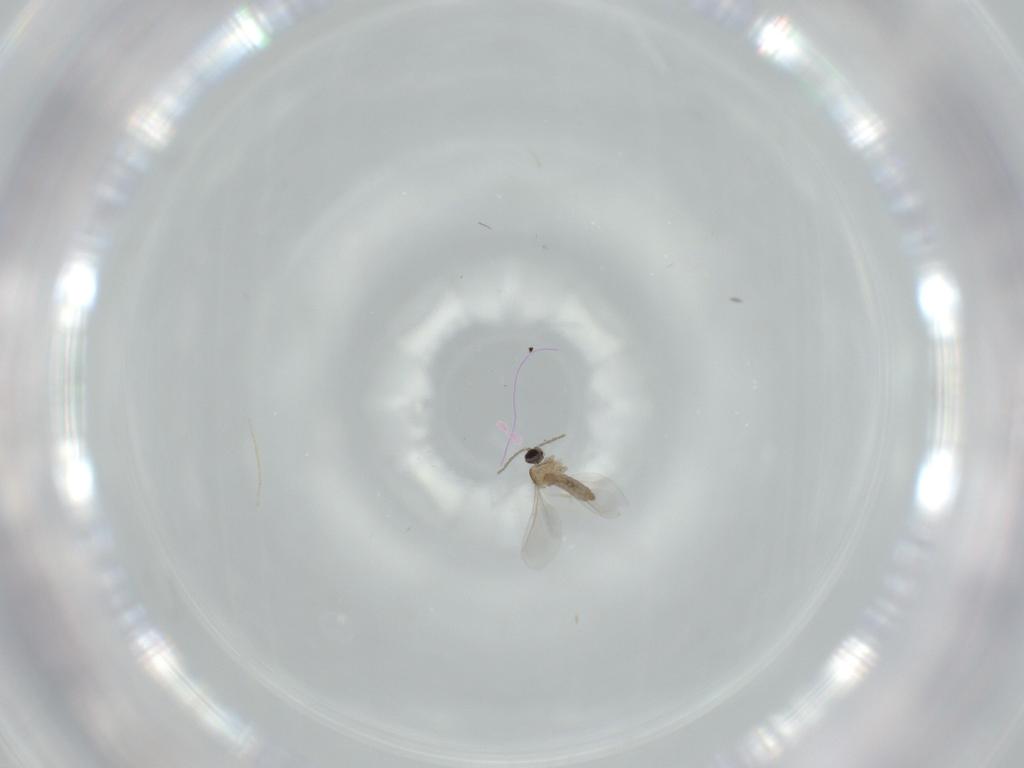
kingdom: Animalia
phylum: Arthropoda
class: Insecta
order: Diptera
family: Cecidomyiidae
